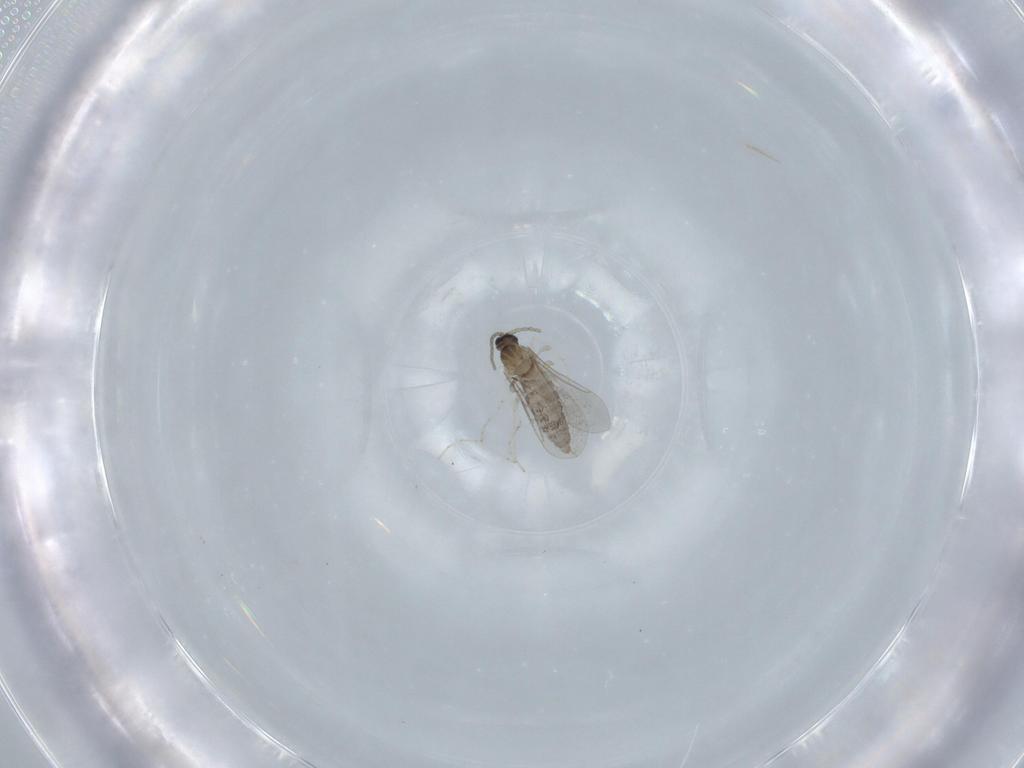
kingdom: Animalia
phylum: Arthropoda
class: Insecta
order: Diptera
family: Cecidomyiidae
